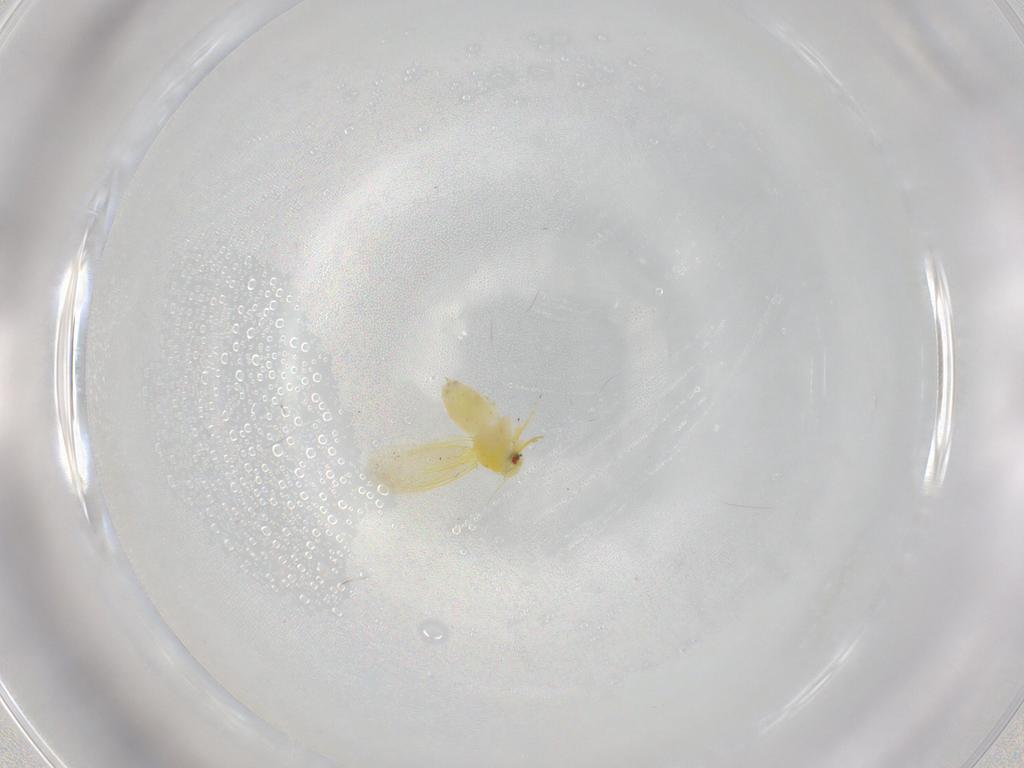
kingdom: Animalia
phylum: Arthropoda
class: Insecta
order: Hemiptera
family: Aleyrodidae
